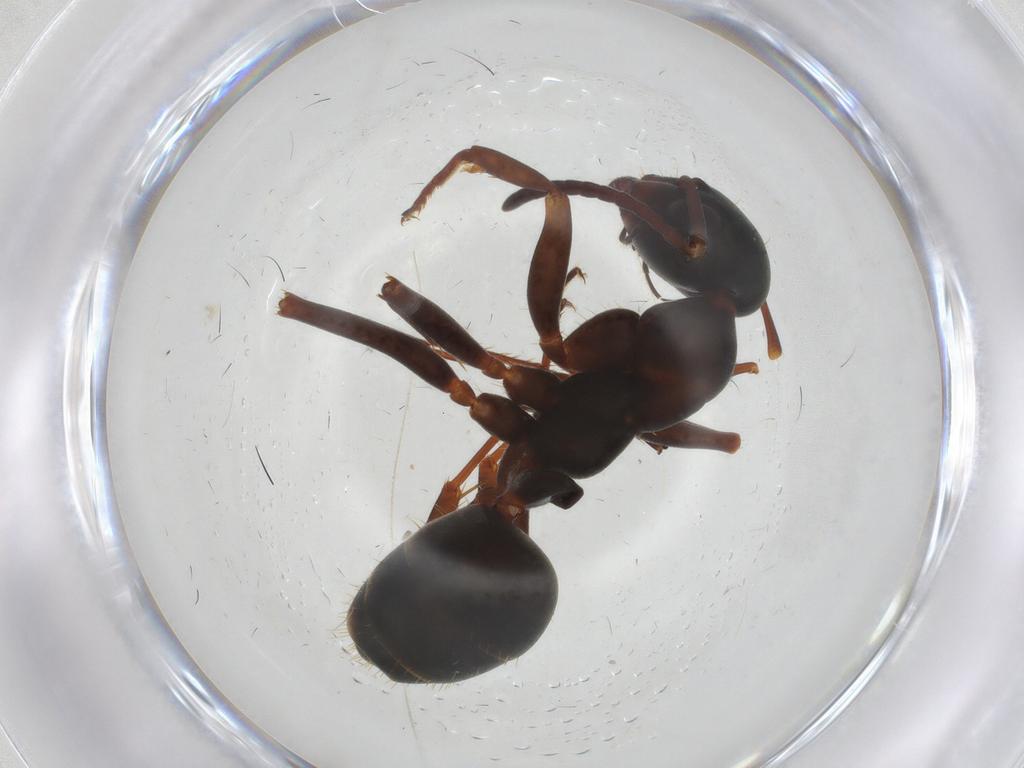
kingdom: Animalia
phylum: Arthropoda
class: Insecta
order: Hymenoptera
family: Formicidae
